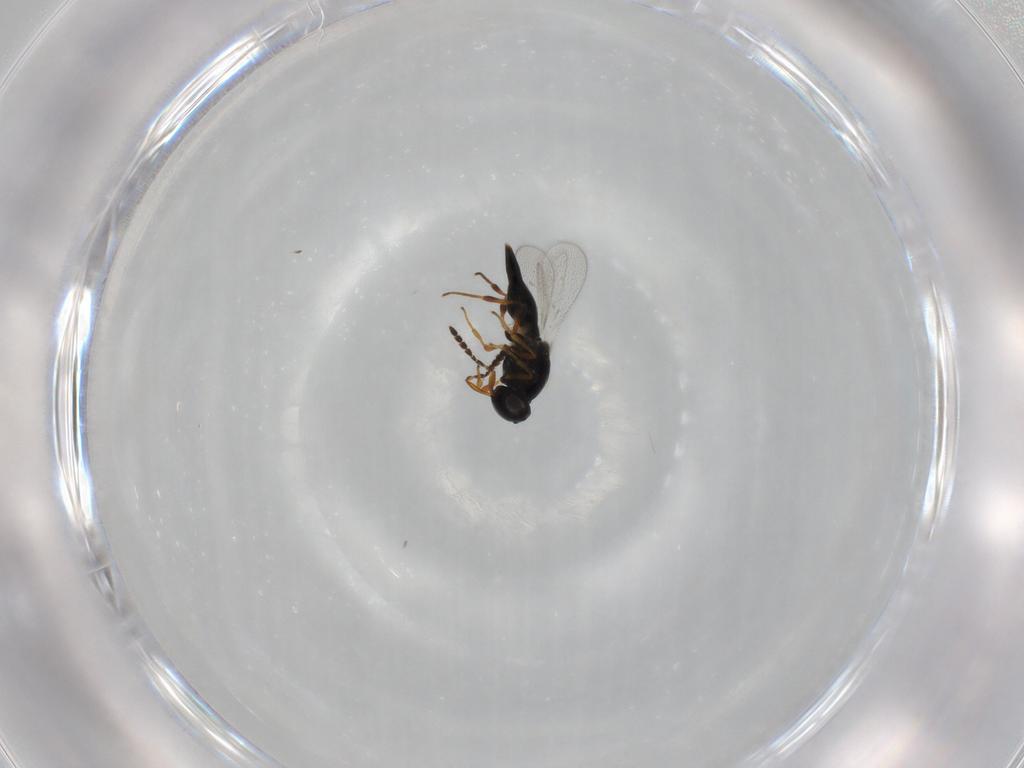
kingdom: Animalia
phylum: Arthropoda
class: Insecta
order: Hymenoptera
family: Platygastridae
